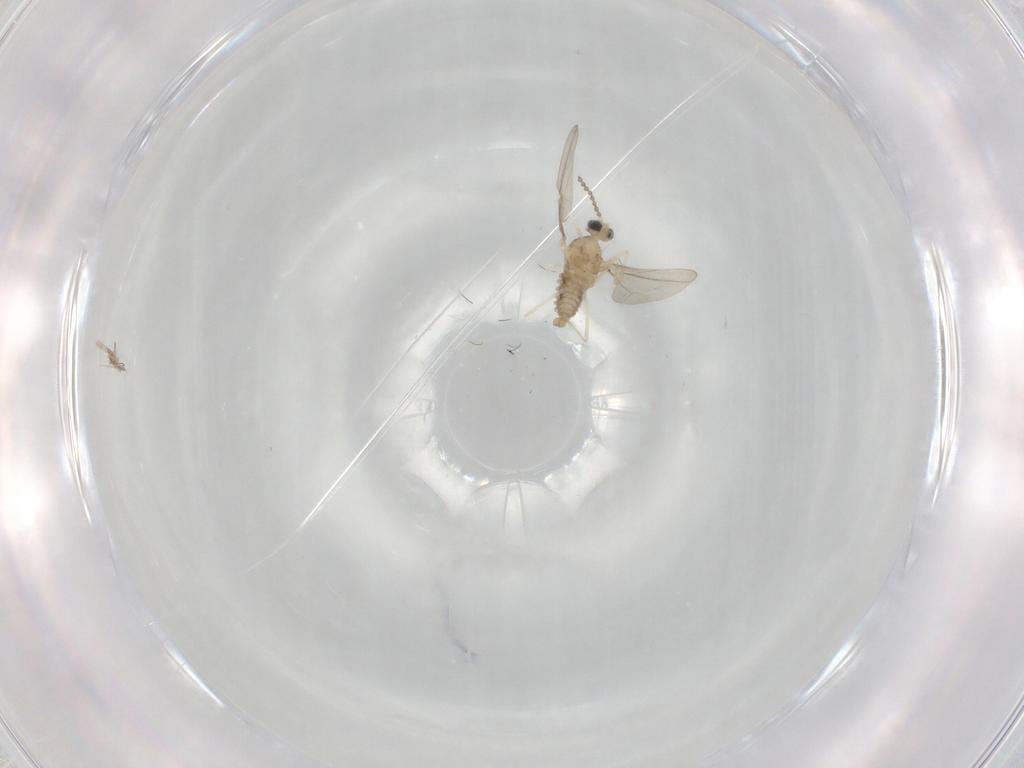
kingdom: Animalia
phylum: Arthropoda
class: Insecta
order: Diptera
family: Cecidomyiidae
